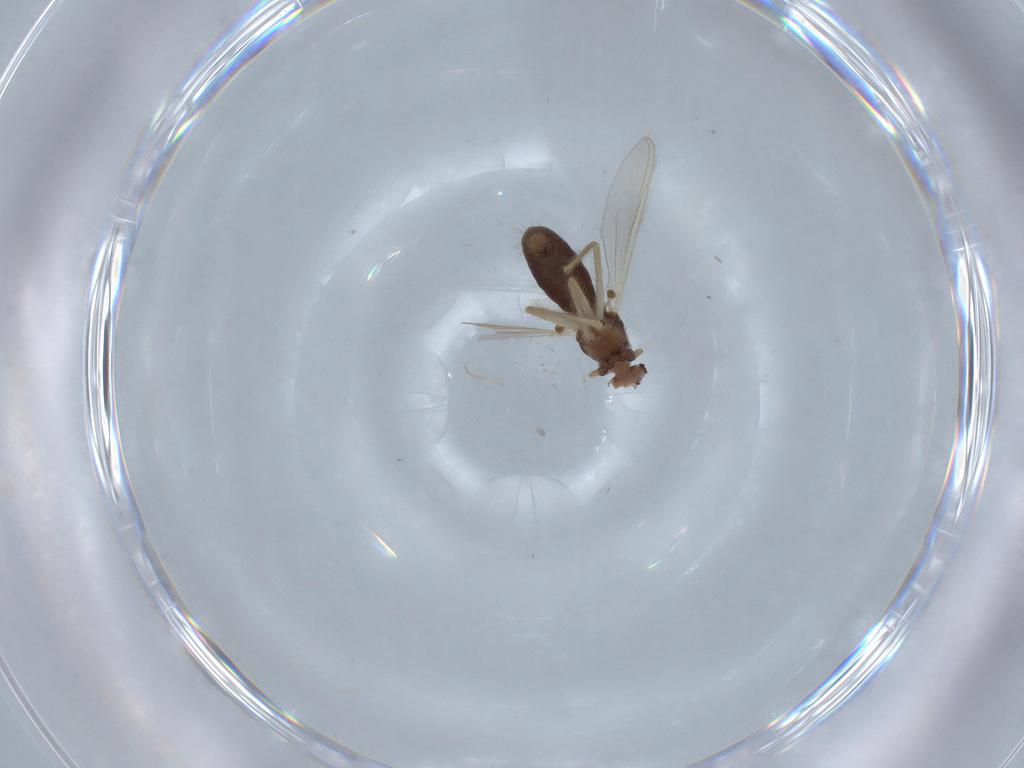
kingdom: Animalia
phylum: Arthropoda
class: Insecta
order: Diptera
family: Chironomidae
